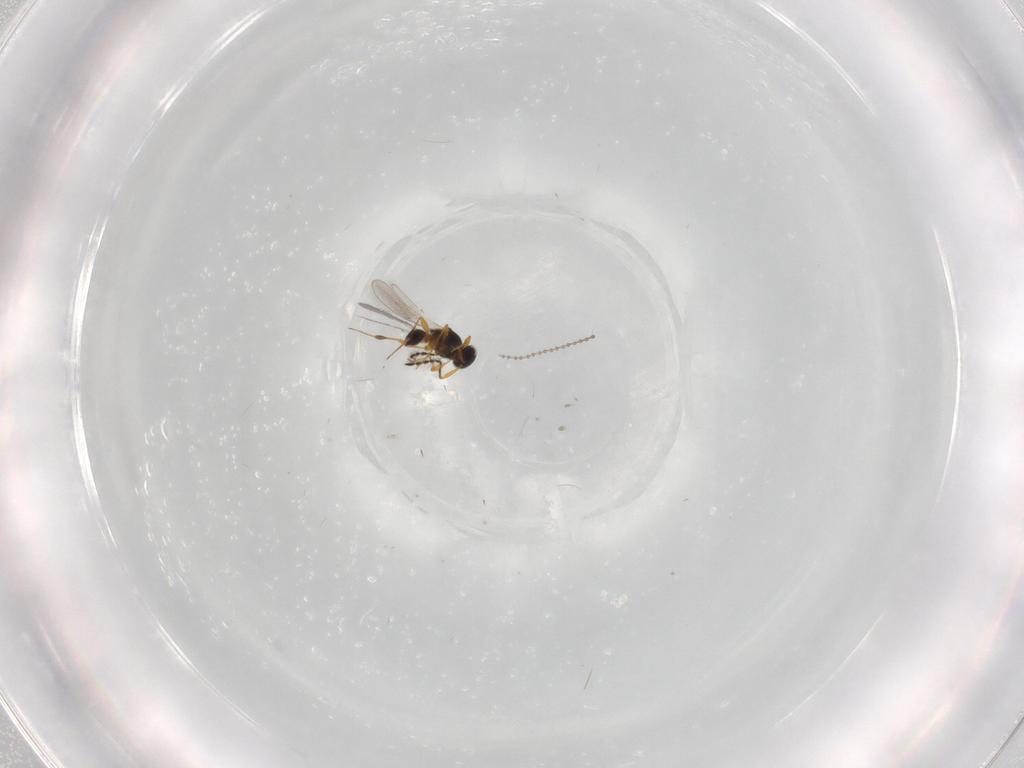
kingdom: Animalia
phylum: Arthropoda
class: Insecta
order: Hymenoptera
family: Platygastridae
